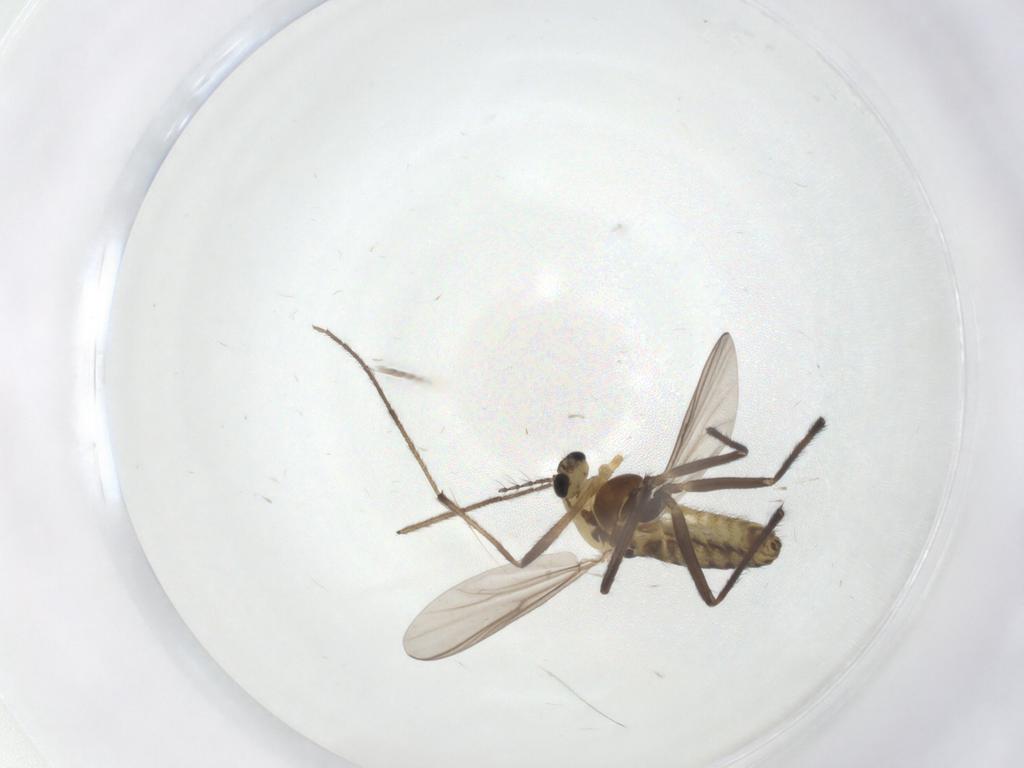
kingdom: Animalia
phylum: Arthropoda
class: Insecta
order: Diptera
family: Chironomidae
